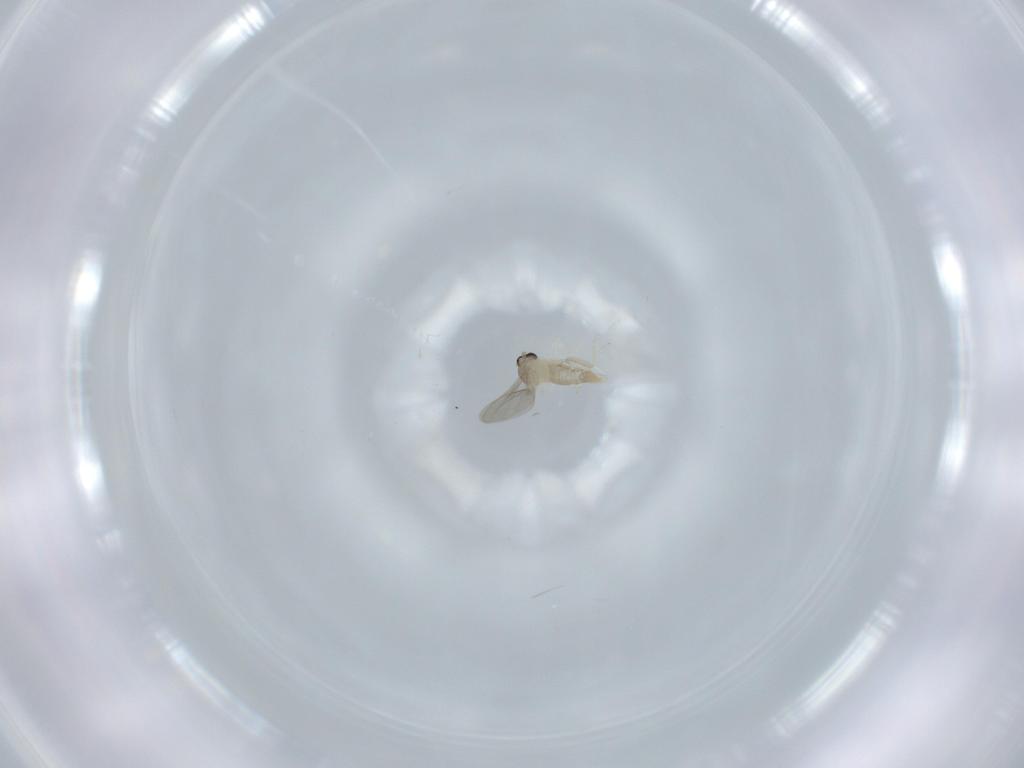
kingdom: Animalia
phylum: Arthropoda
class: Insecta
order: Diptera
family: Cecidomyiidae
